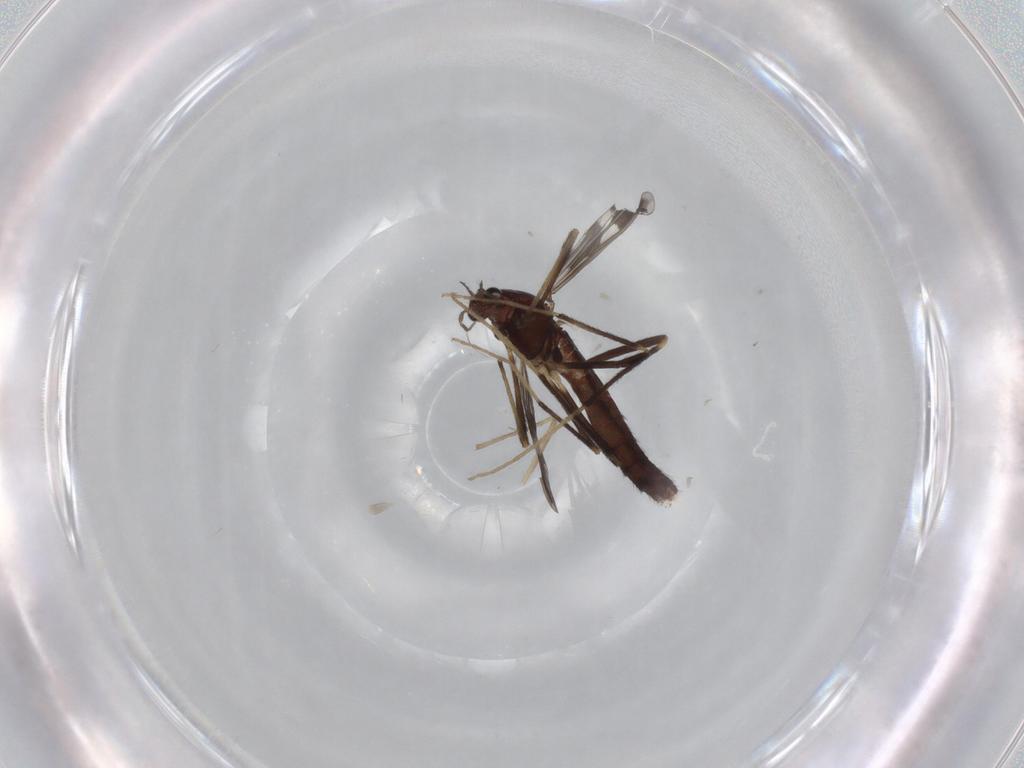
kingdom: Animalia
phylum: Arthropoda
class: Insecta
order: Diptera
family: Chironomidae
